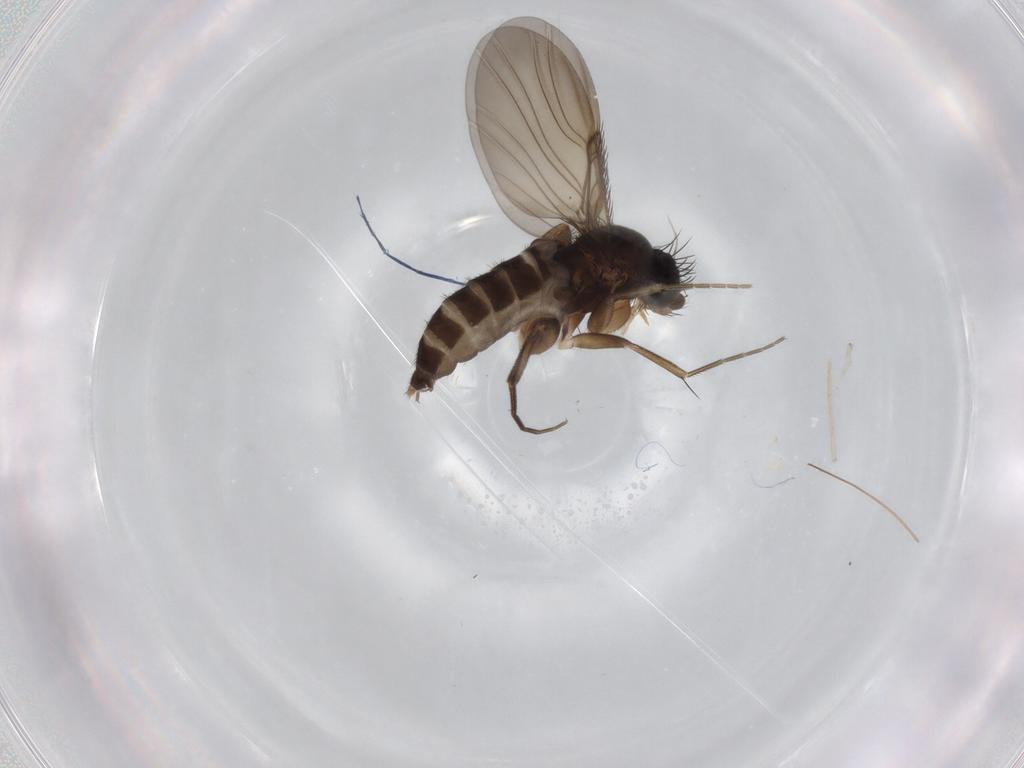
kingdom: Animalia
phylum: Arthropoda
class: Insecta
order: Diptera
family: Phoridae
